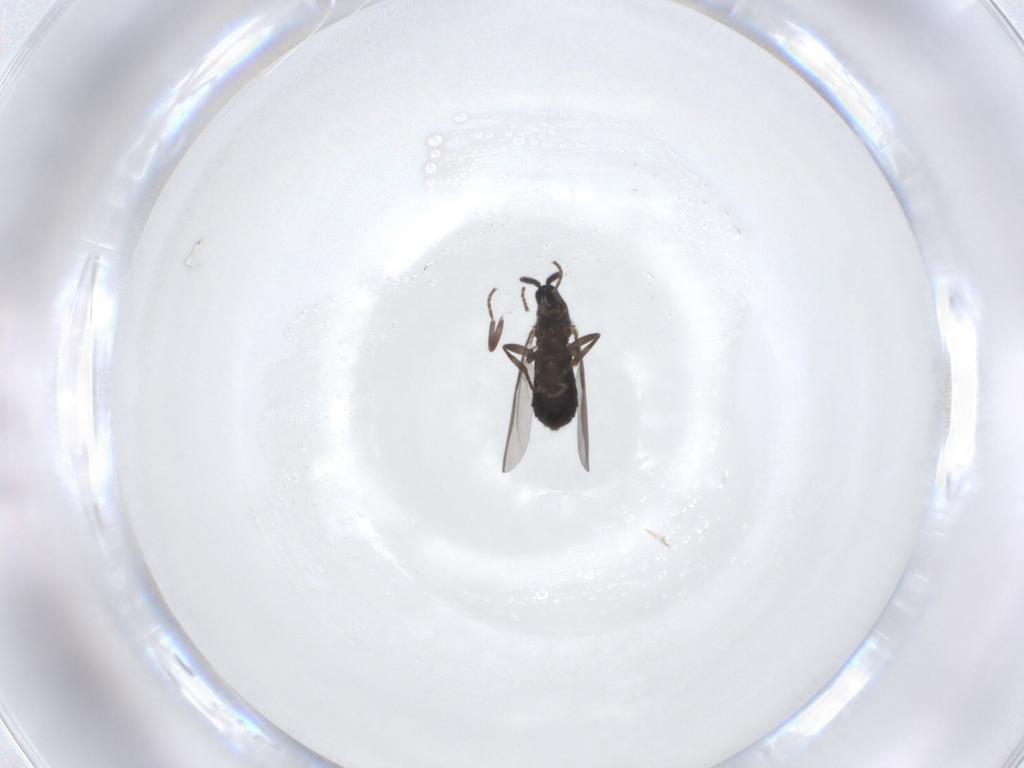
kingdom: Animalia
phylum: Arthropoda
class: Insecta
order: Diptera
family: Scatopsidae
